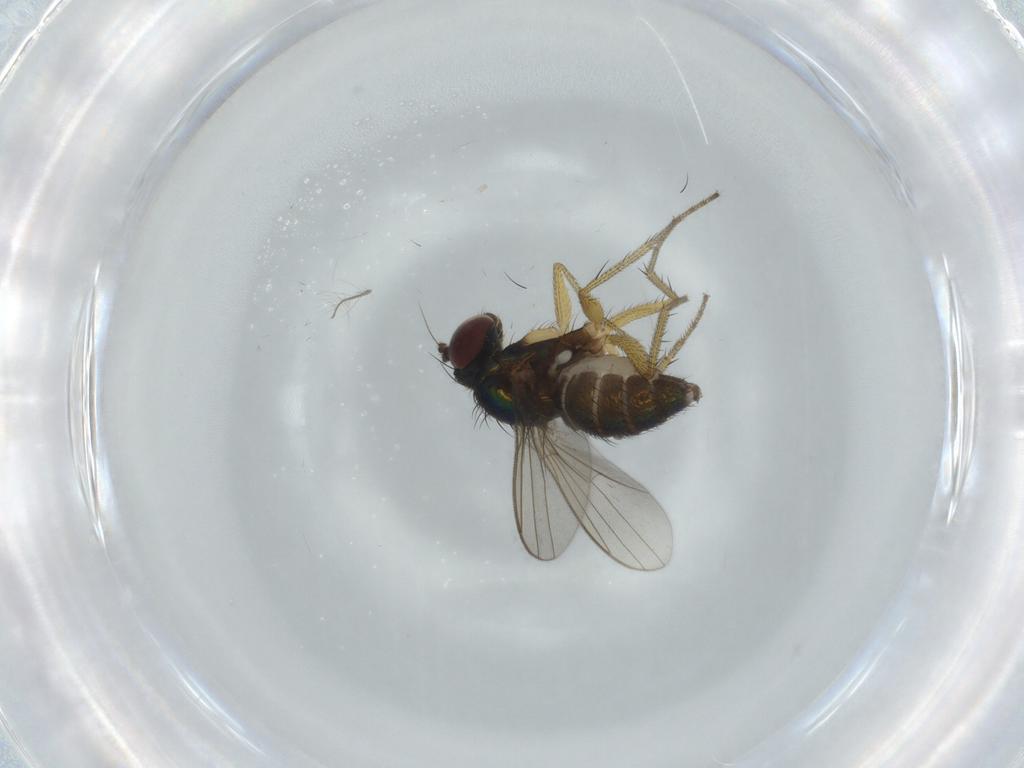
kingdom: Animalia
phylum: Arthropoda
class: Insecta
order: Diptera
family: Dolichopodidae
